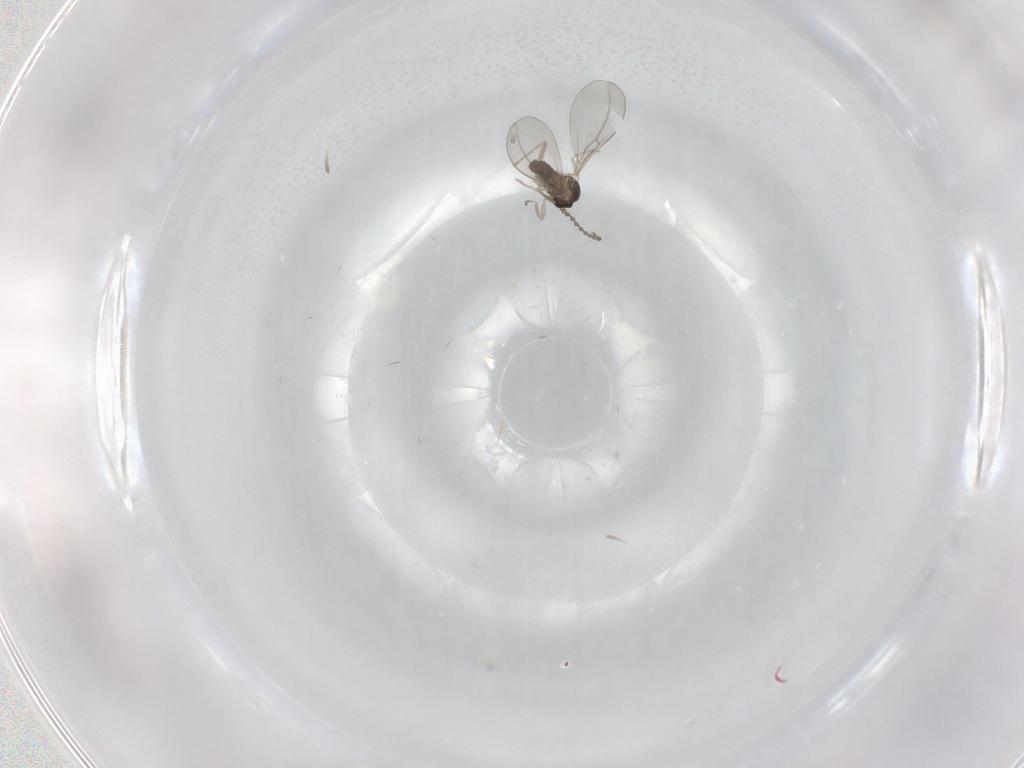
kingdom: Animalia
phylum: Arthropoda
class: Insecta
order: Diptera
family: Cecidomyiidae
